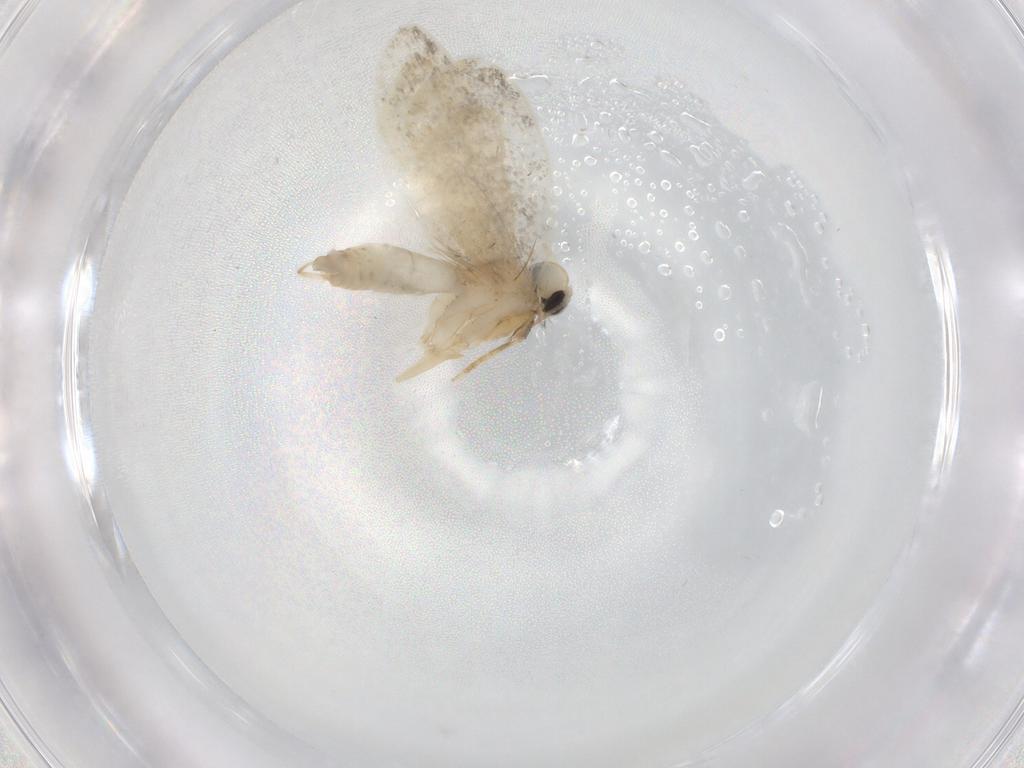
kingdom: Animalia
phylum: Arthropoda
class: Insecta
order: Lepidoptera
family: Psychidae
